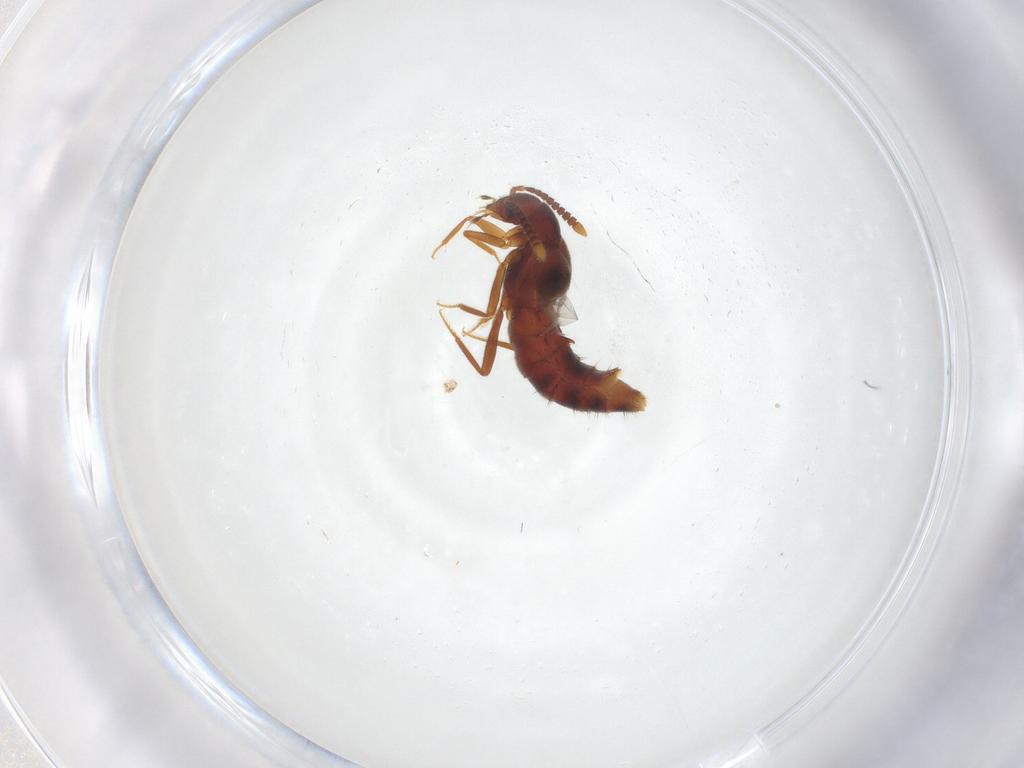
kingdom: Animalia
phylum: Arthropoda
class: Insecta
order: Coleoptera
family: Staphylinidae
